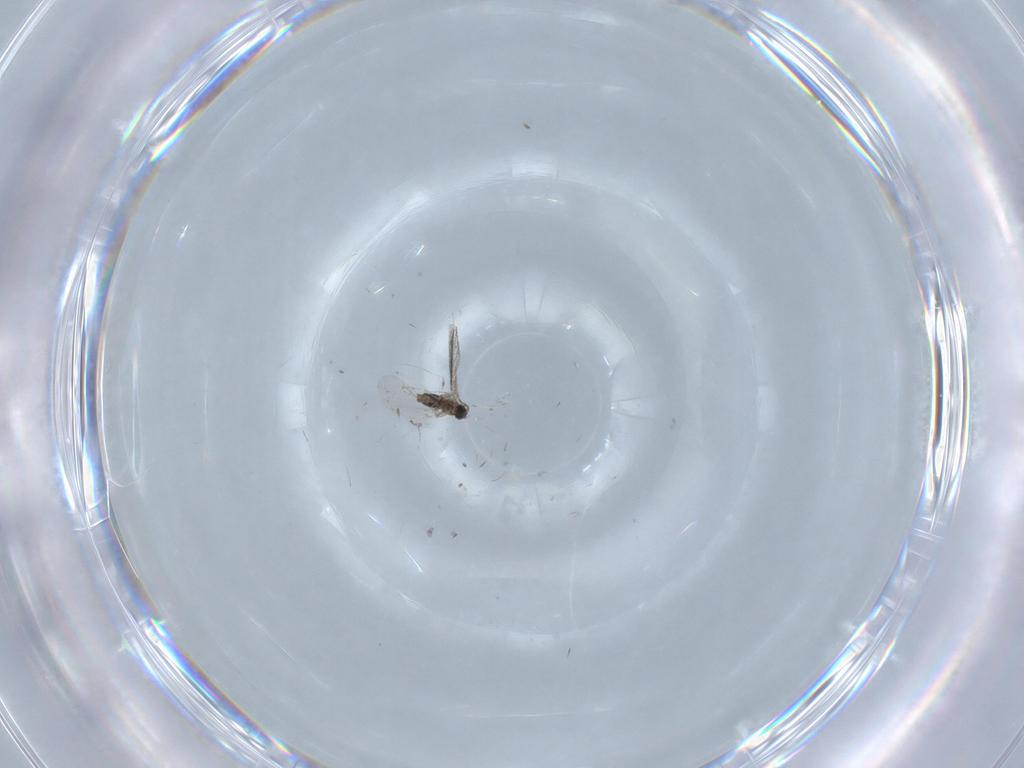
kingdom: Animalia
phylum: Arthropoda
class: Insecta
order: Diptera
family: Cecidomyiidae
